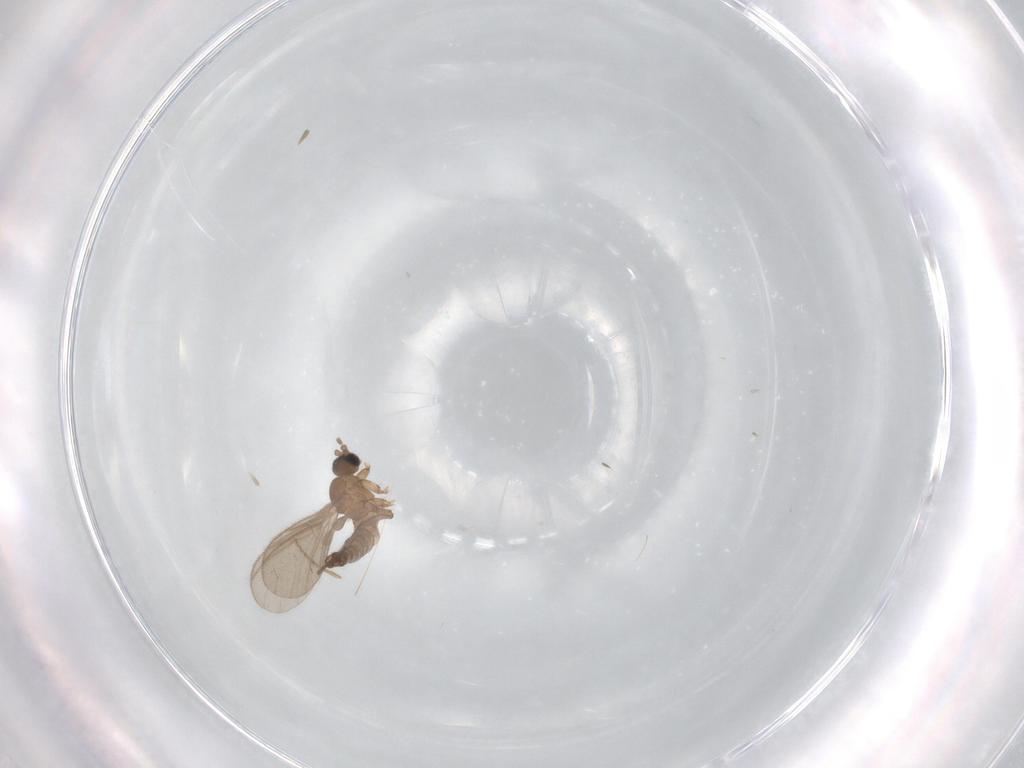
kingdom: Animalia
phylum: Arthropoda
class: Insecta
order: Diptera
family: Sciaridae
